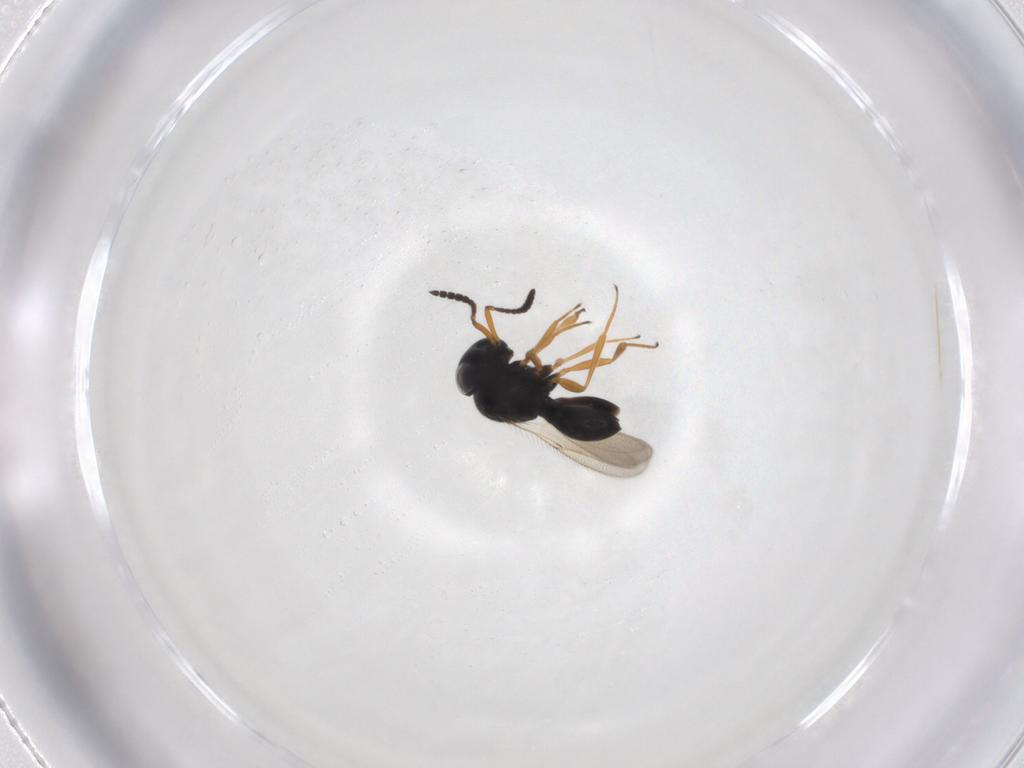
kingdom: Animalia
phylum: Arthropoda
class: Insecta
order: Hymenoptera
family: Scelionidae
